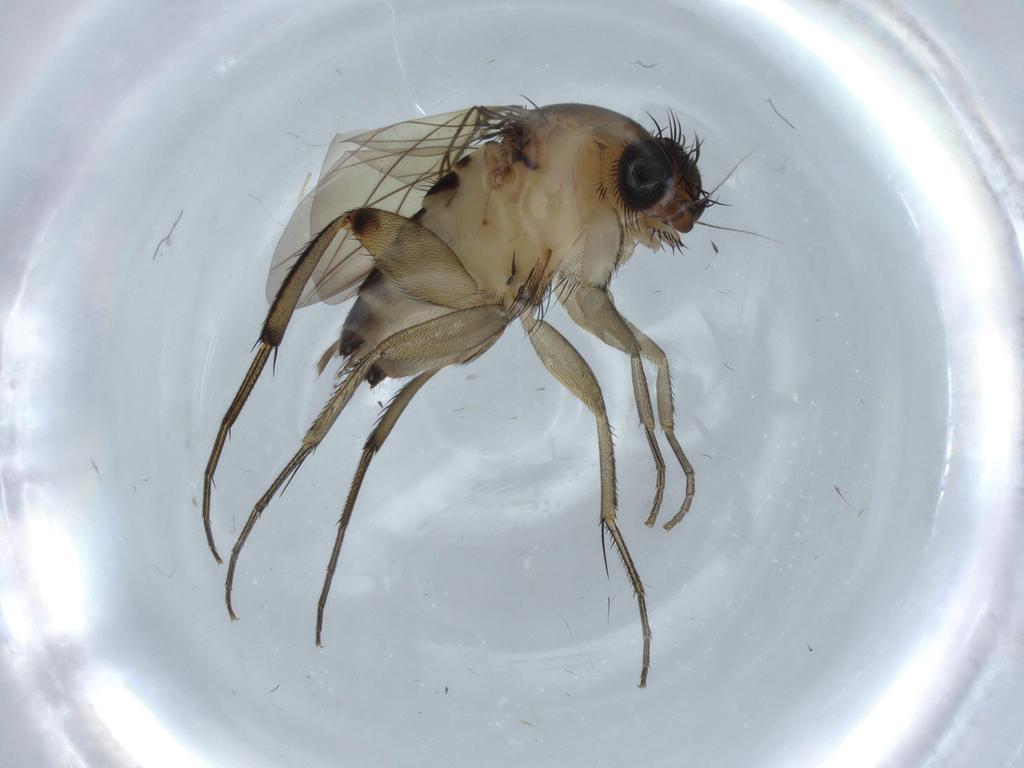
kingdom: Animalia
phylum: Arthropoda
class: Insecta
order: Diptera
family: Phoridae
